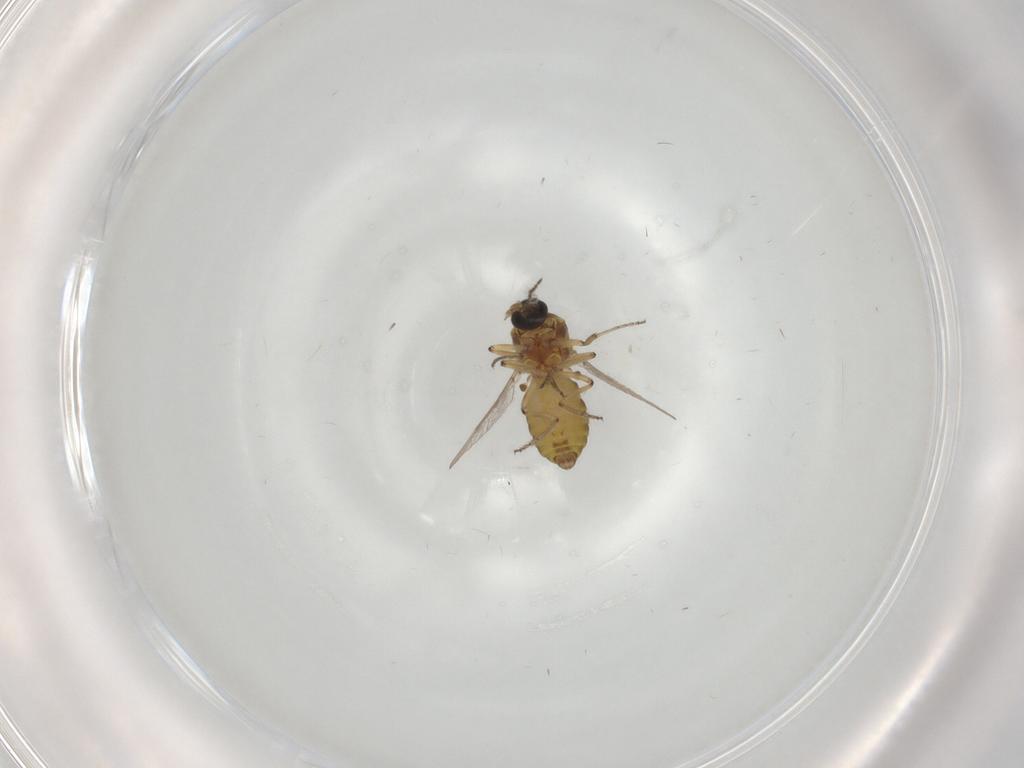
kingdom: Animalia
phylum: Arthropoda
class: Insecta
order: Diptera
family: Ceratopogonidae
